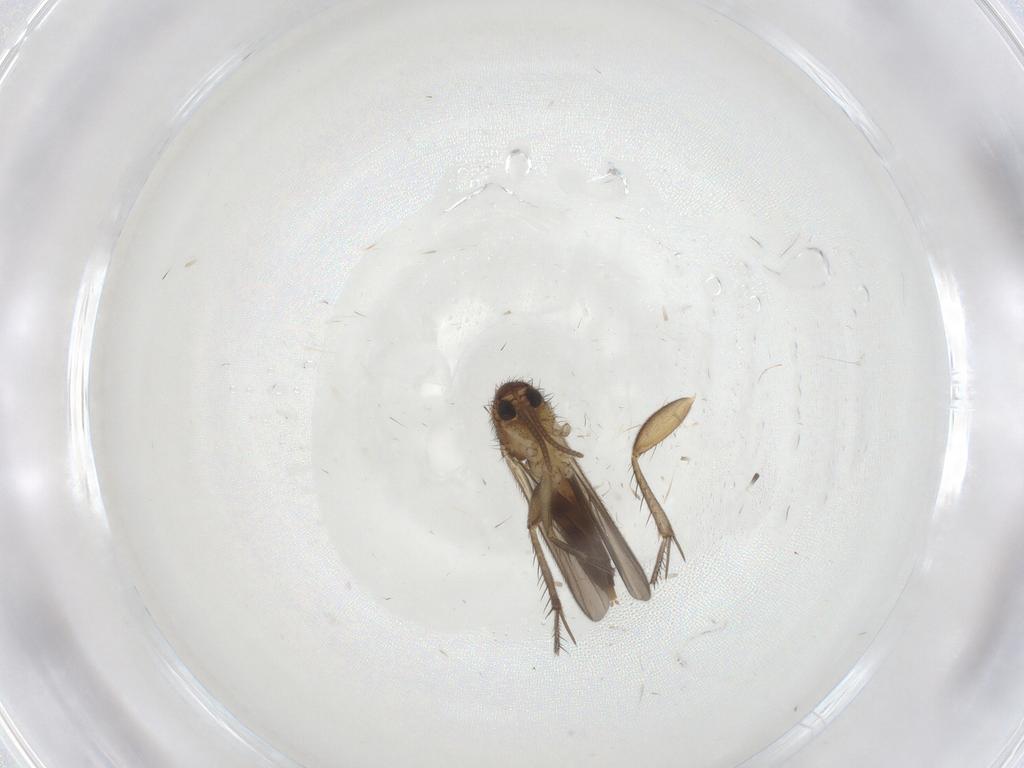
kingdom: Animalia
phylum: Arthropoda
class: Insecta
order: Diptera
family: Mycetophilidae
